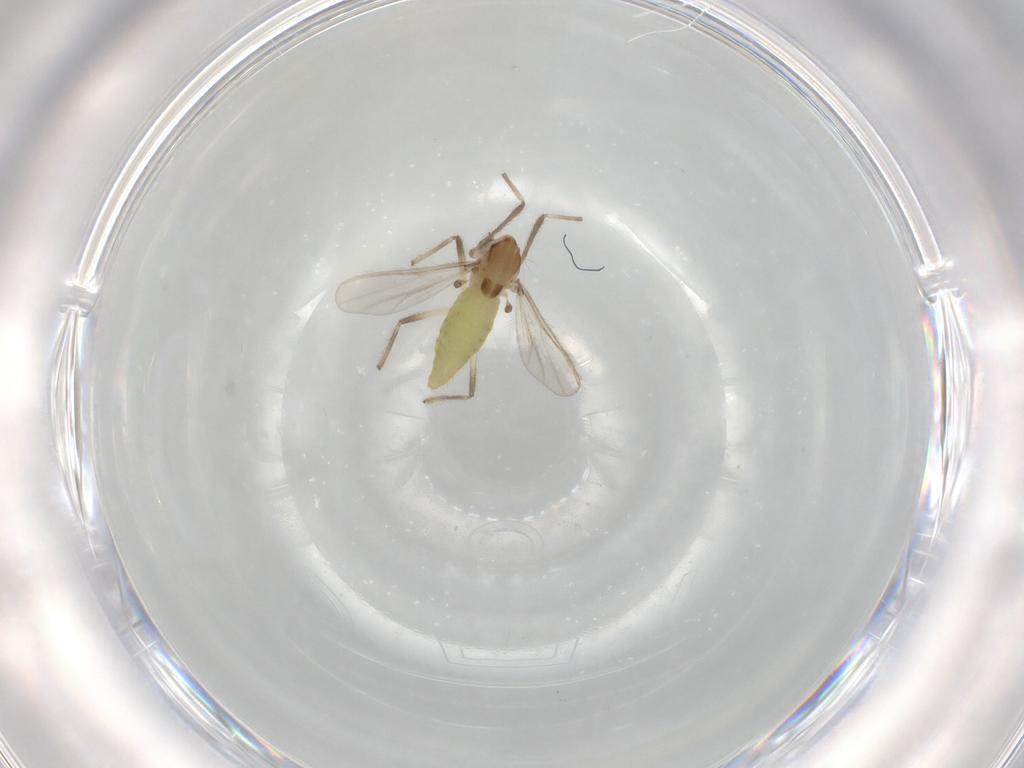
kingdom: Animalia
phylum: Arthropoda
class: Insecta
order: Diptera
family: Chironomidae
